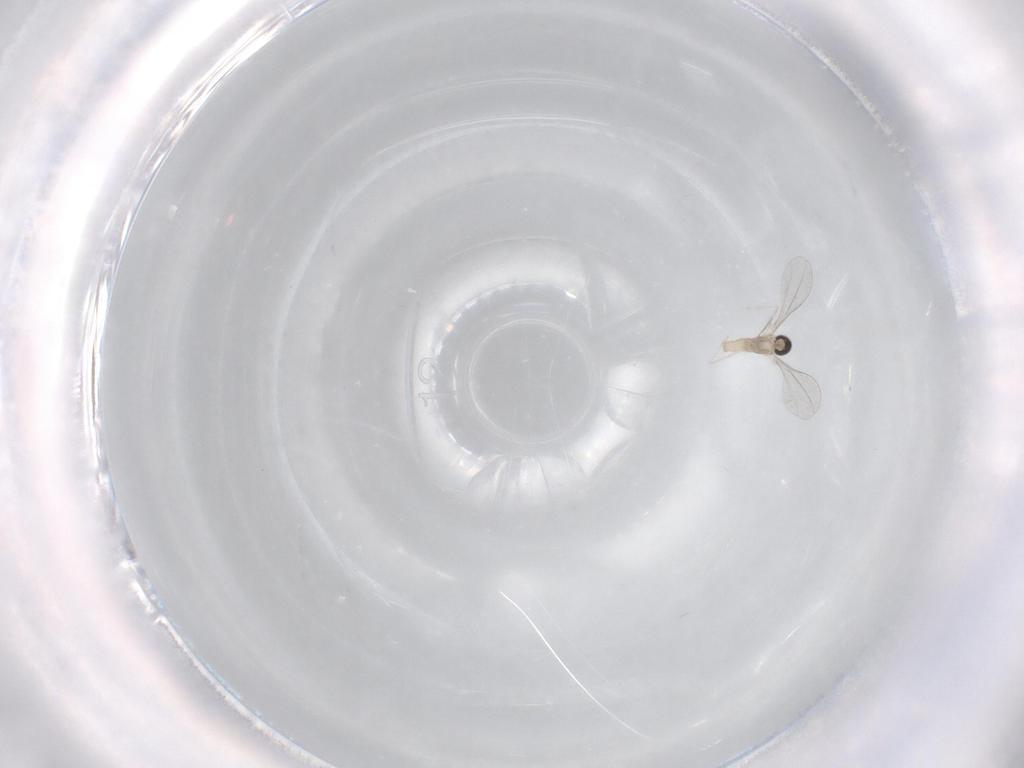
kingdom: Animalia
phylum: Arthropoda
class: Insecta
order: Diptera
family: Cecidomyiidae
